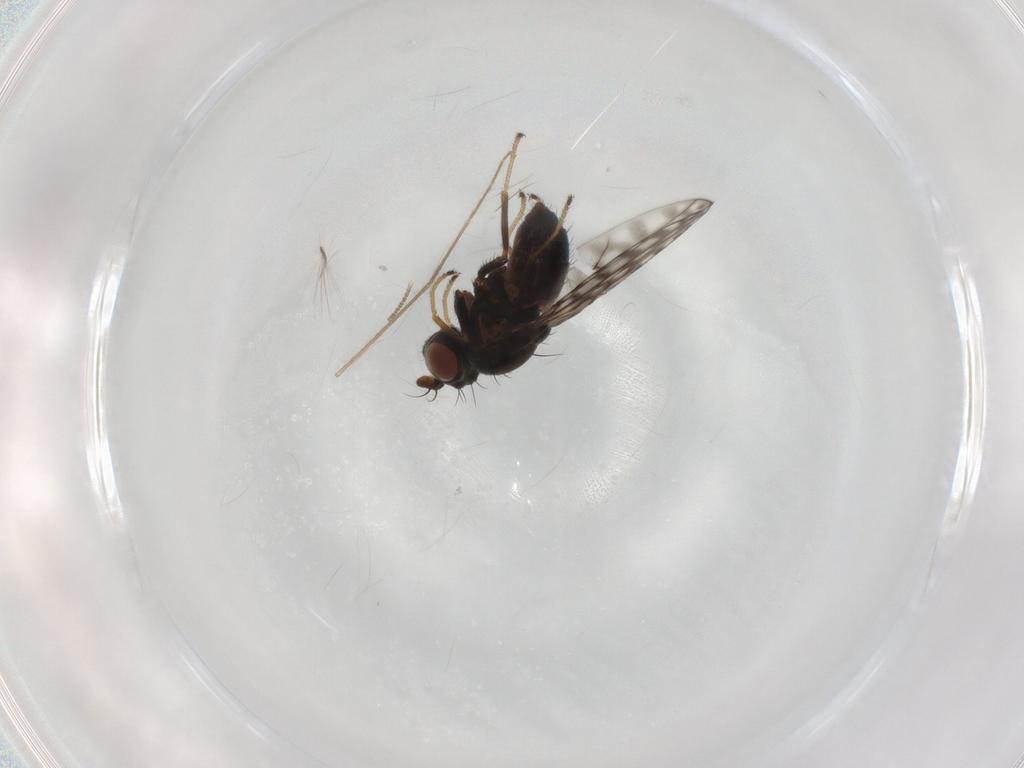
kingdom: Animalia
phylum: Arthropoda
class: Insecta
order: Diptera
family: Ephydridae
